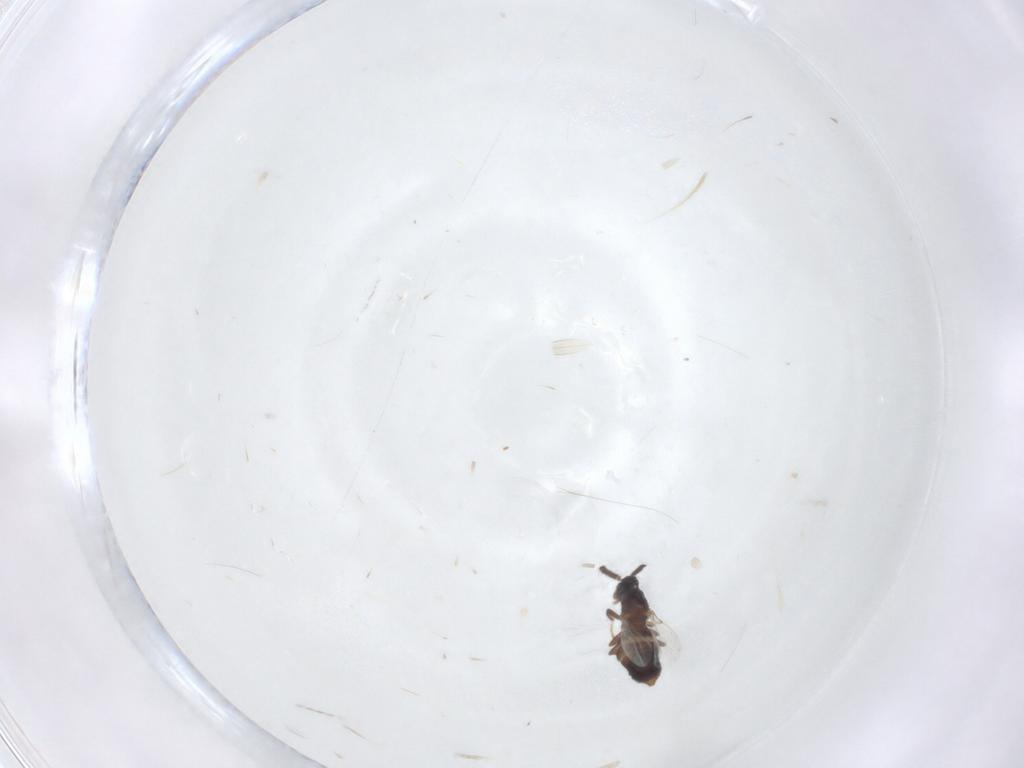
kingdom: Animalia
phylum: Arthropoda
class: Insecta
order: Diptera
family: Scatopsidae
